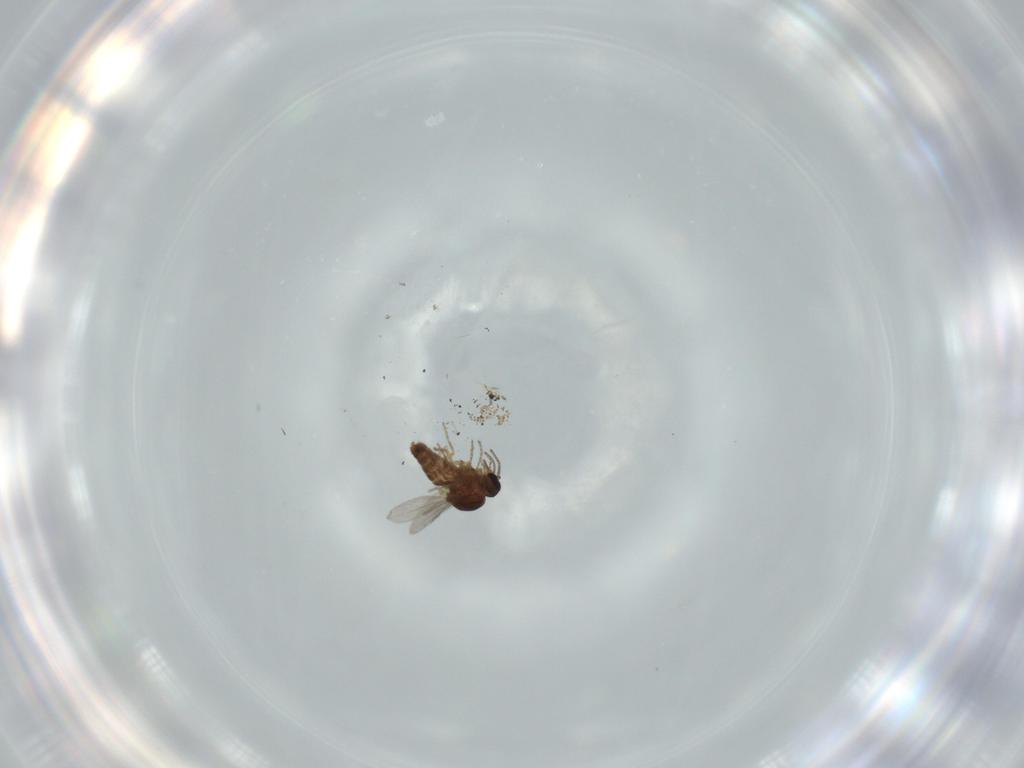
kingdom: Animalia
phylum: Arthropoda
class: Insecta
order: Diptera
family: Ceratopogonidae
